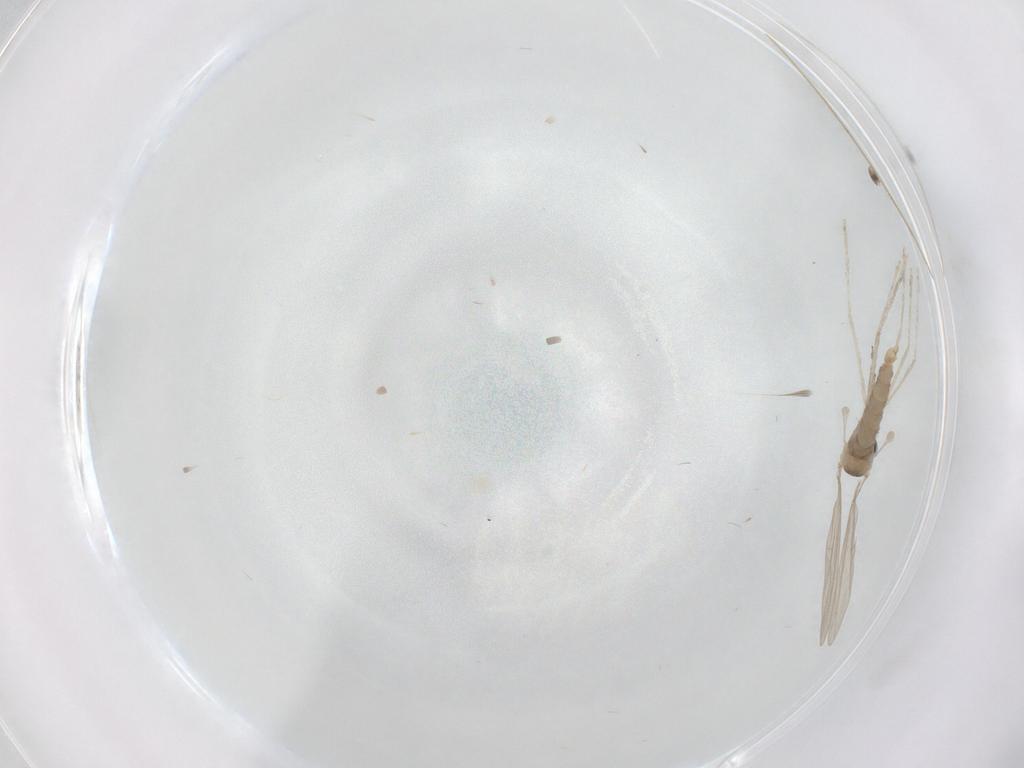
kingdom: Animalia
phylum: Arthropoda
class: Insecta
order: Diptera
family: Cecidomyiidae
